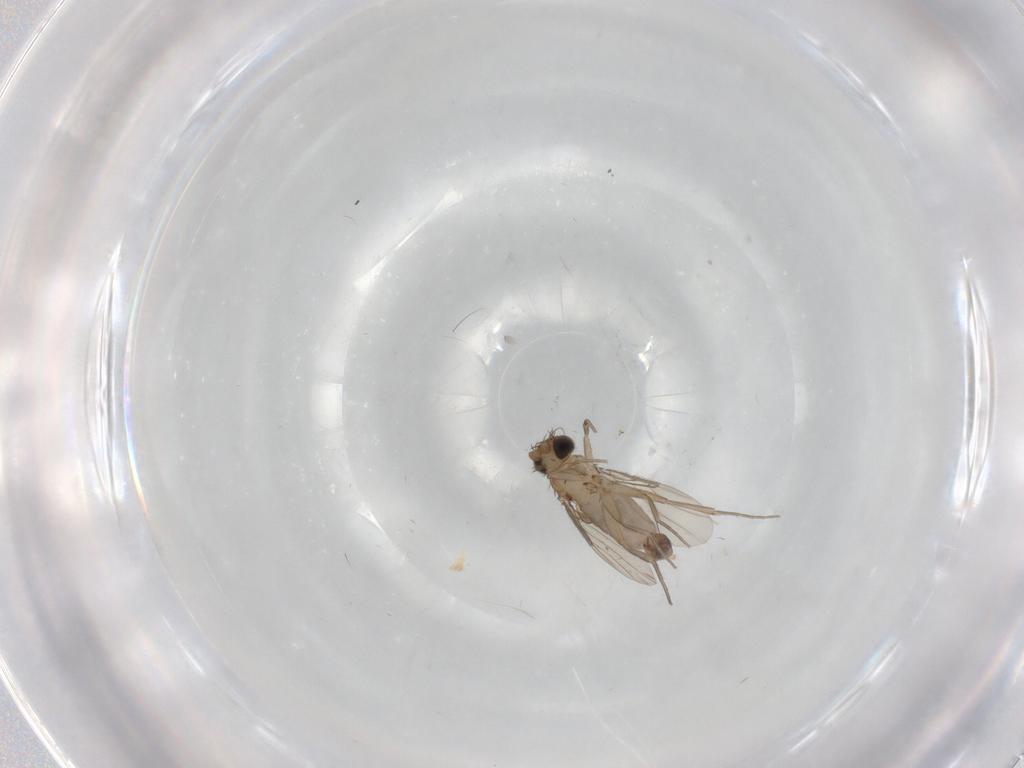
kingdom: Animalia
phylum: Arthropoda
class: Insecta
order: Diptera
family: Phoridae
